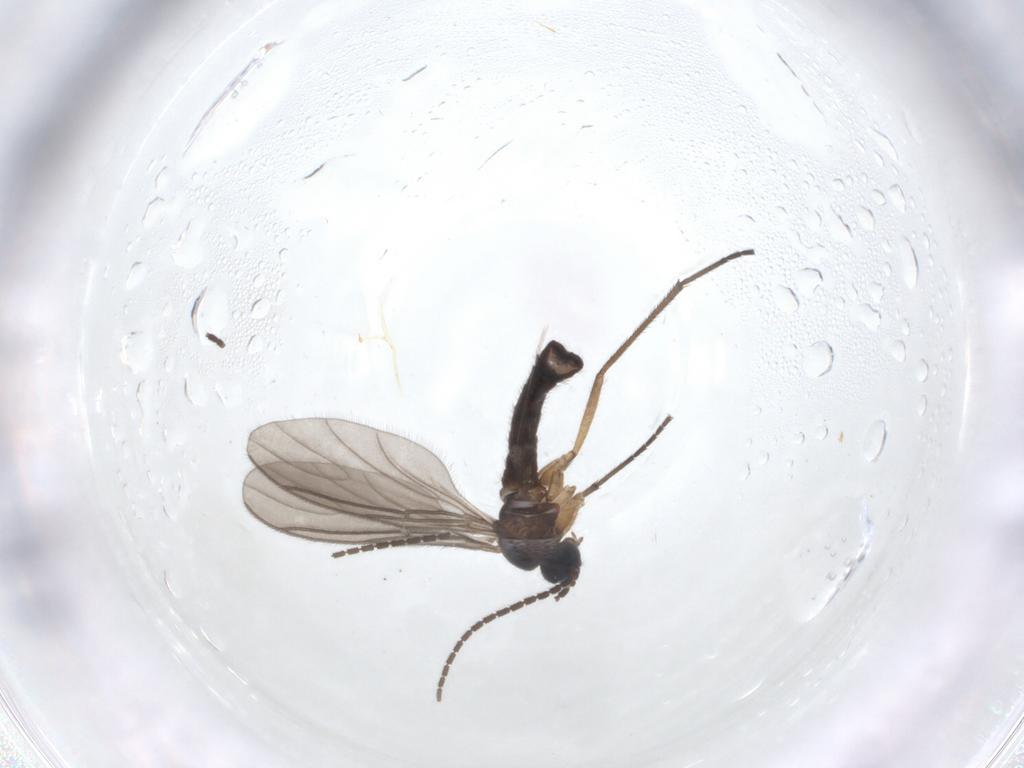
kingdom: Animalia
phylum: Arthropoda
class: Insecta
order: Diptera
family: Sciaridae
